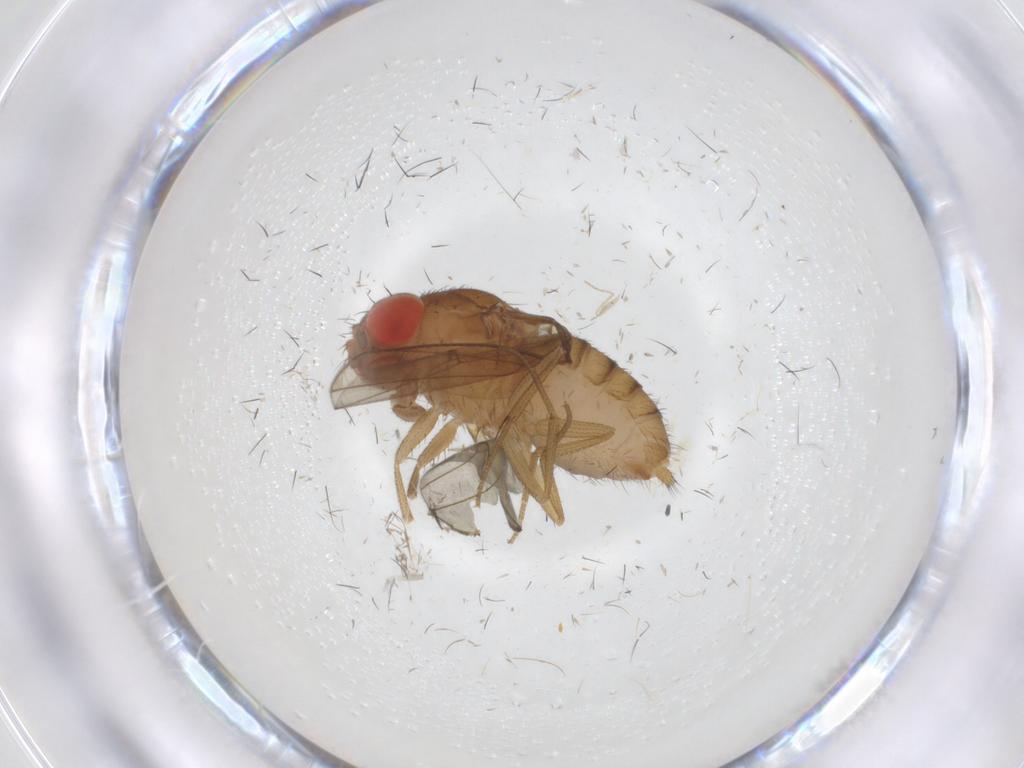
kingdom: Animalia
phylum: Arthropoda
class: Insecta
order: Diptera
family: Drosophilidae
